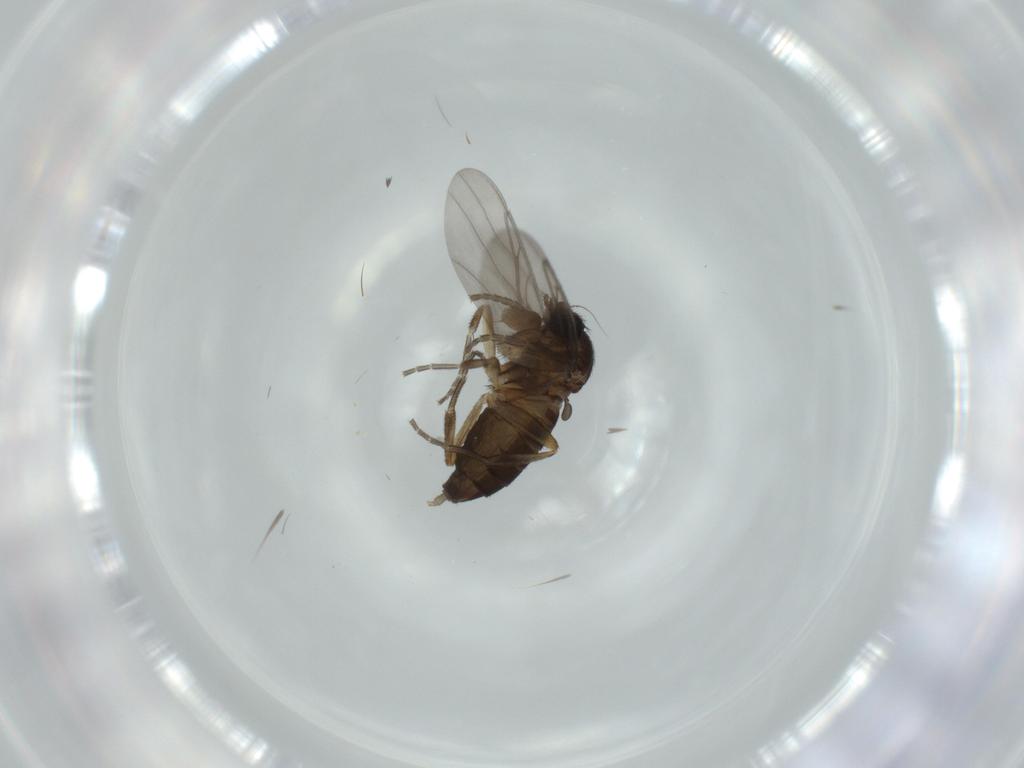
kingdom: Animalia
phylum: Arthropoda
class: Insecta
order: Diptera
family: Phoridae
